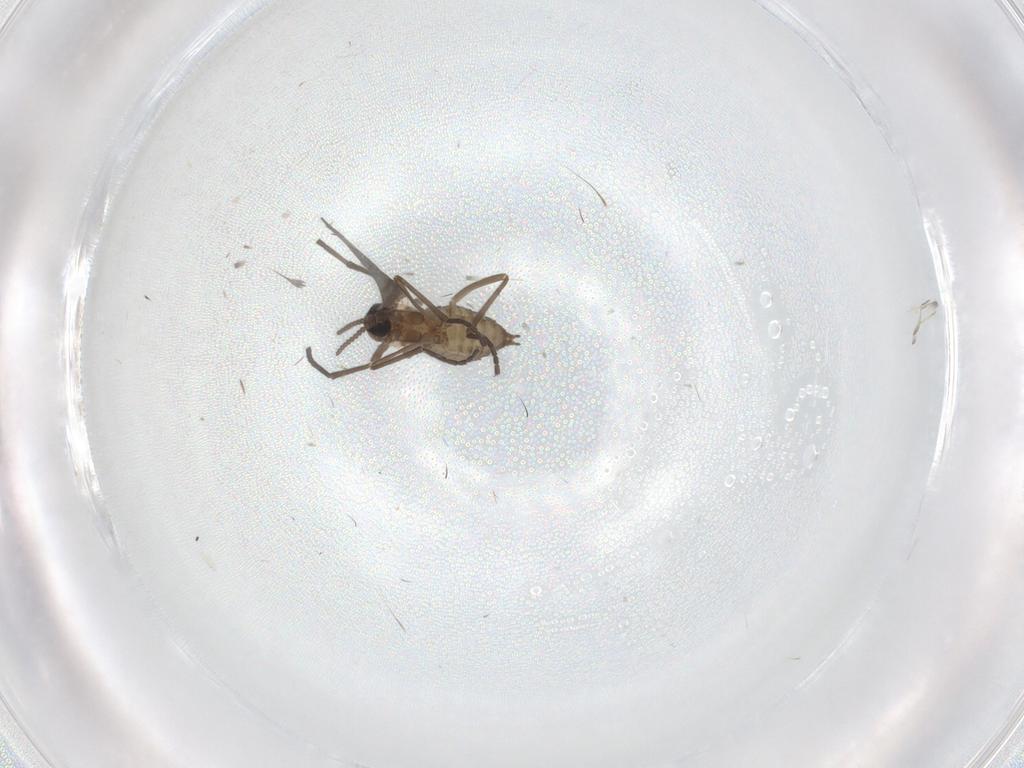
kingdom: Animalia
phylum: Arthropoda
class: Insecta
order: Diptera
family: Cecidomyiidae
